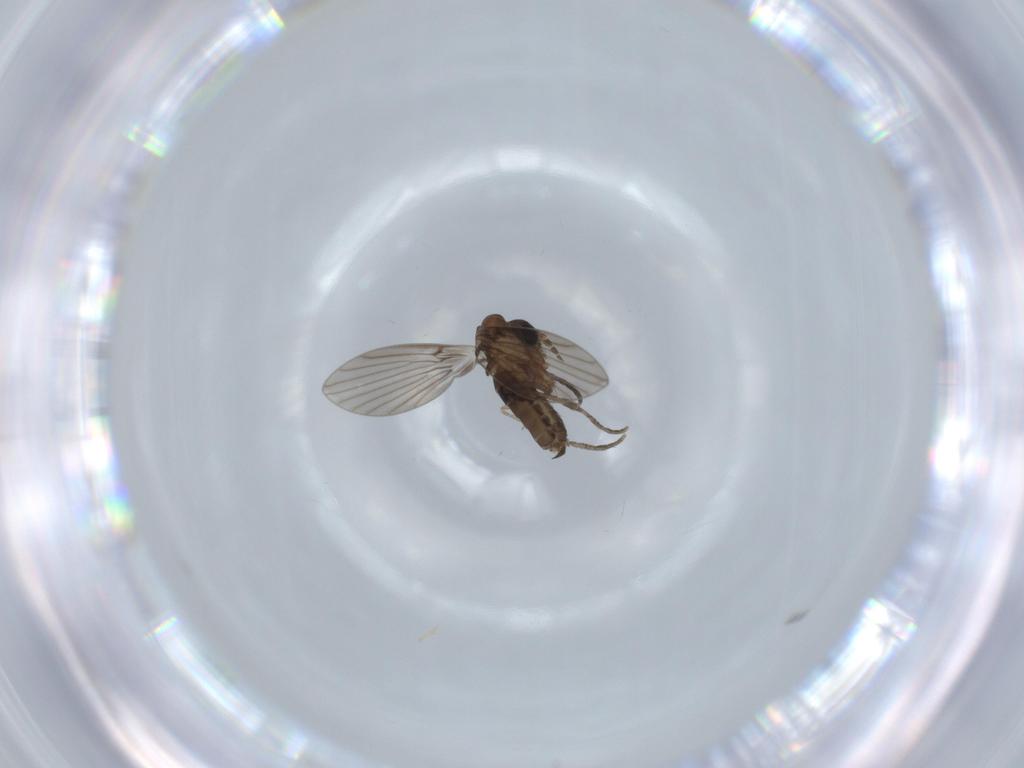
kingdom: Animalia
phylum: Arthropoda
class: Insecta
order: Diptera
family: Psychodidae
